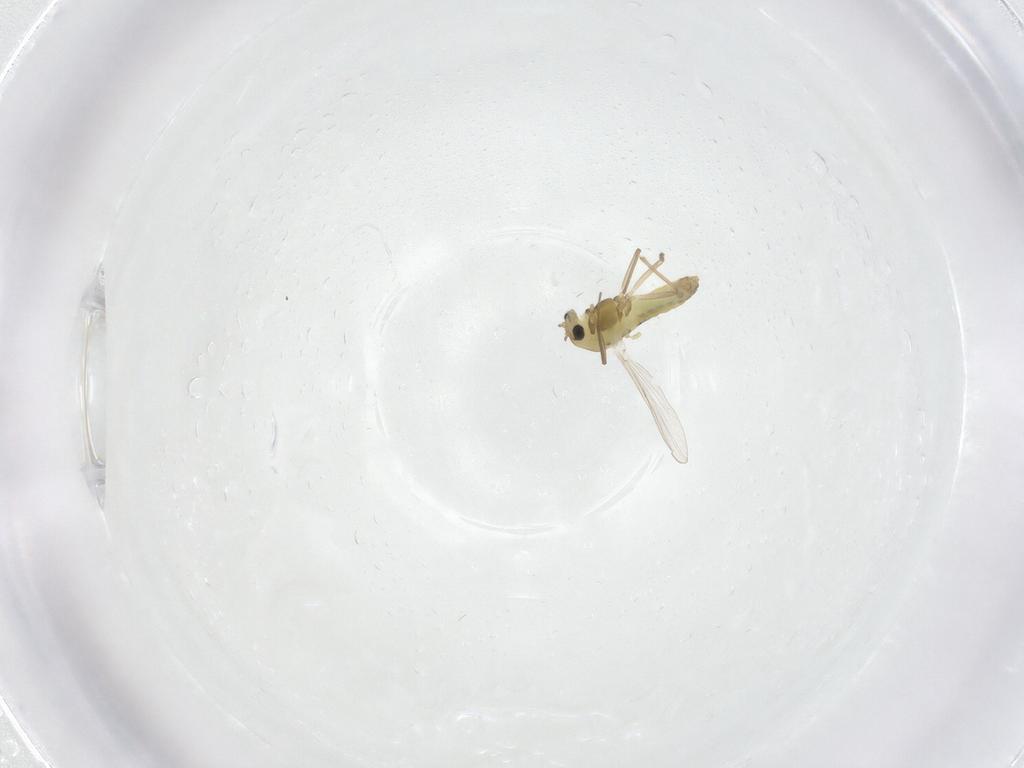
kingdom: Animalia
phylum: Arthropoda
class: Insecta
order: Diptera
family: Chironomidae
